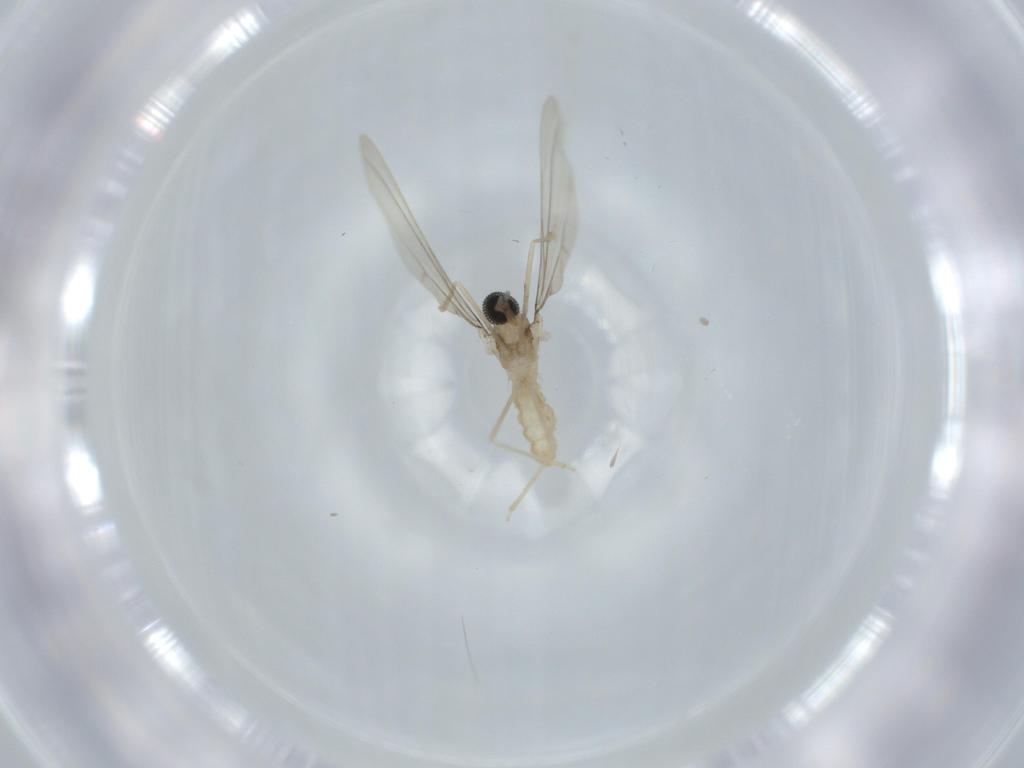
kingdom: Animalia
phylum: Arthropoda
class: Insecta
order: Diptera
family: Cecidomyiidae
